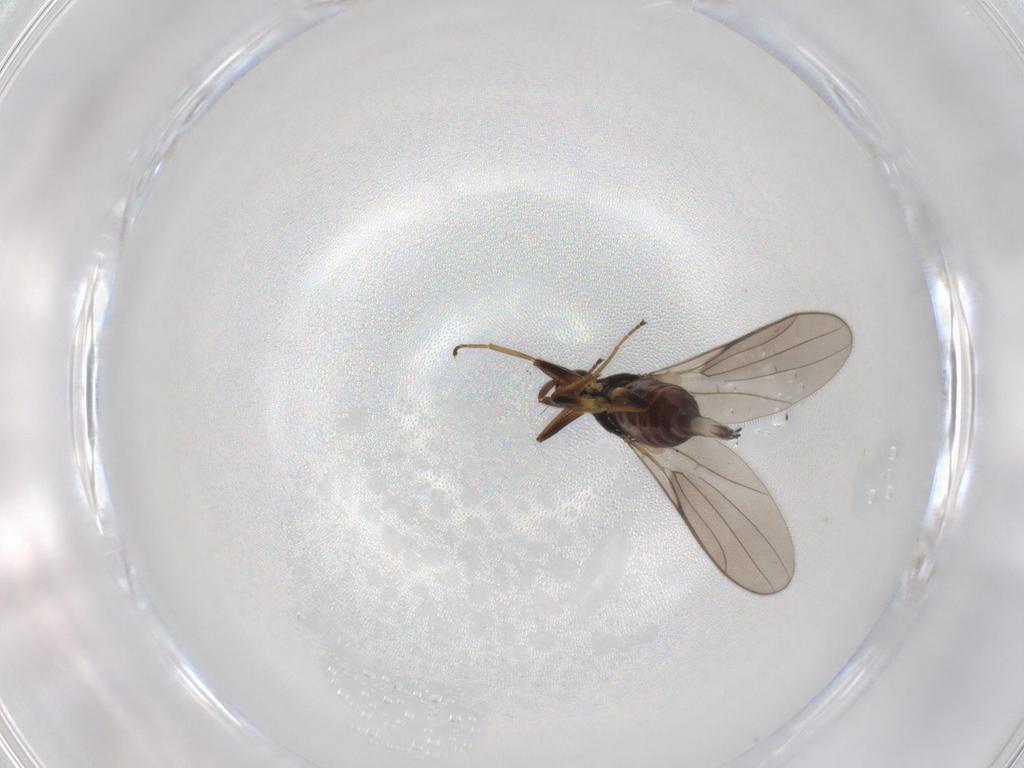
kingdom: Animalia
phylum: Arthropoda
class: Insecta
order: Diptera
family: Hybotidae
